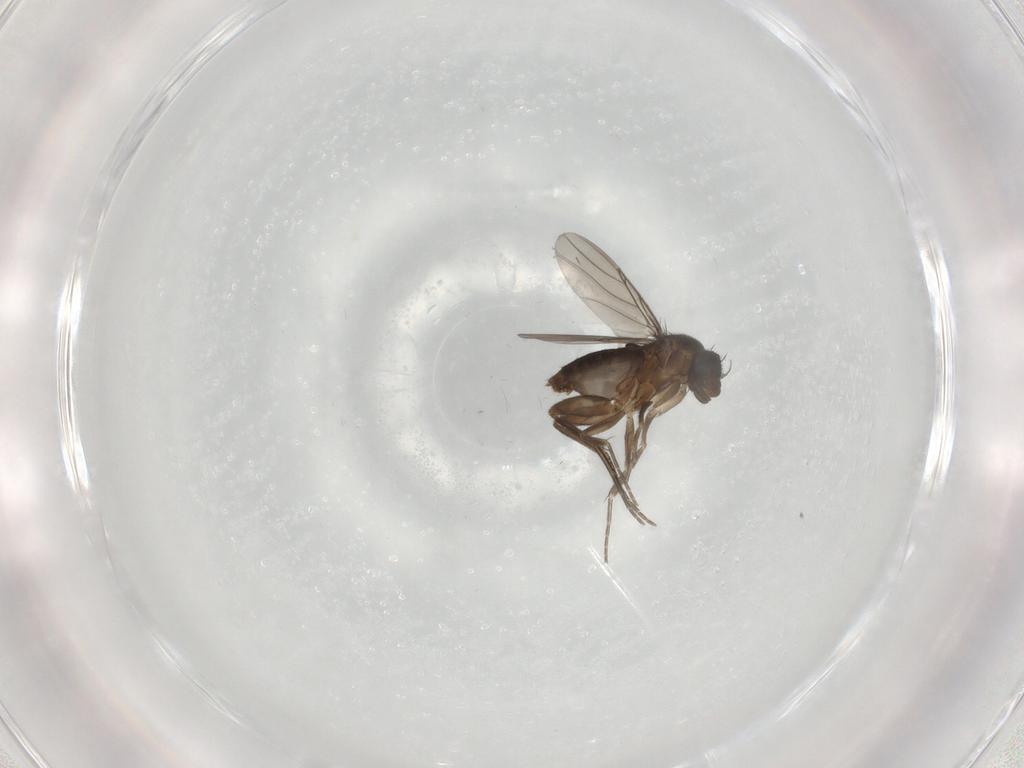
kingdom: Animalia
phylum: Arthropoda
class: Insecta
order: Diptera
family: Phoridae
